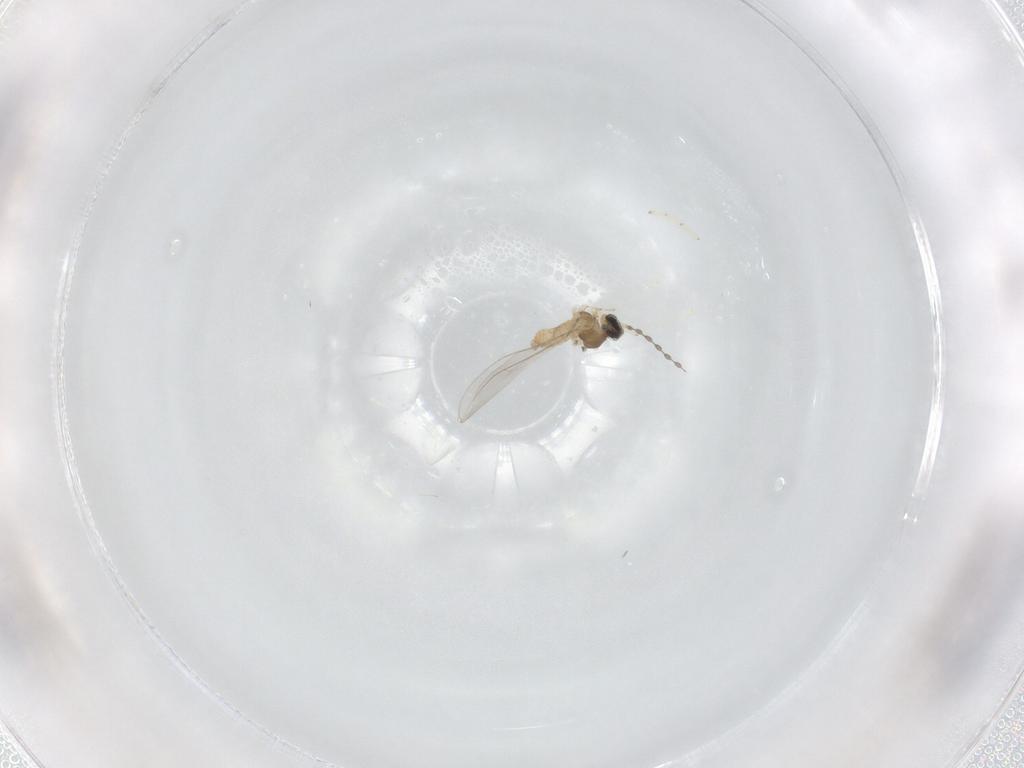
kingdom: Animalia
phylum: Arthropoda
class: Insecta
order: Diptera
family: Cecidomyiidae
